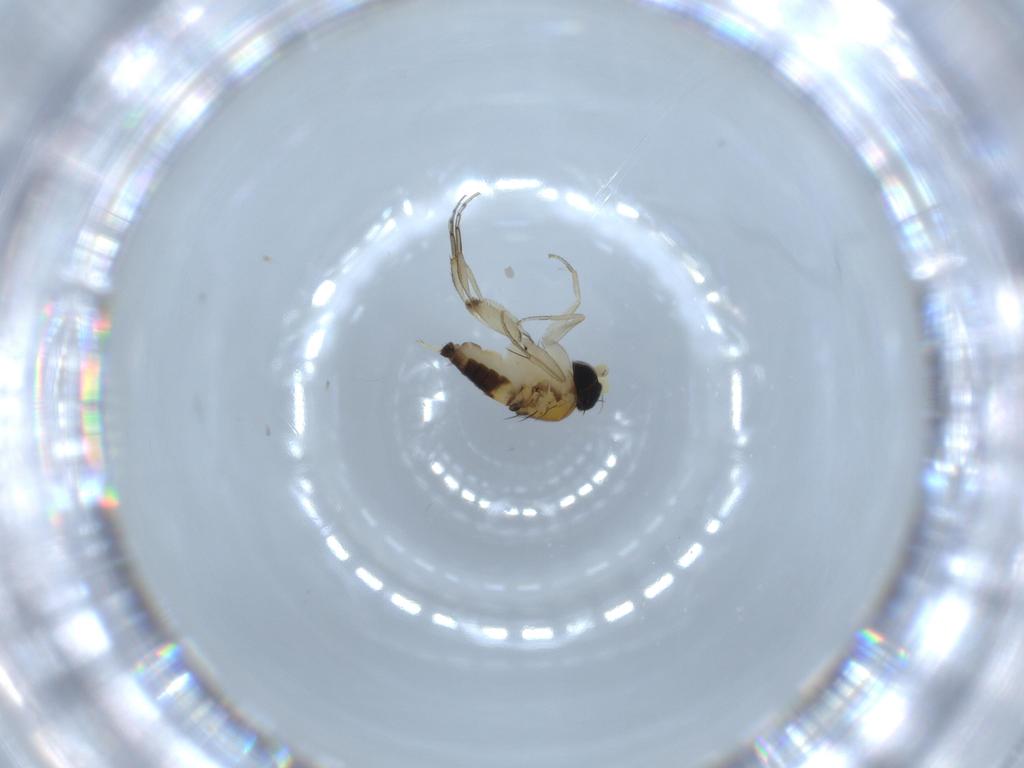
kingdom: Animalia
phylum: Arthropoda
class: Insecta
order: Diptera
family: Phoridae
